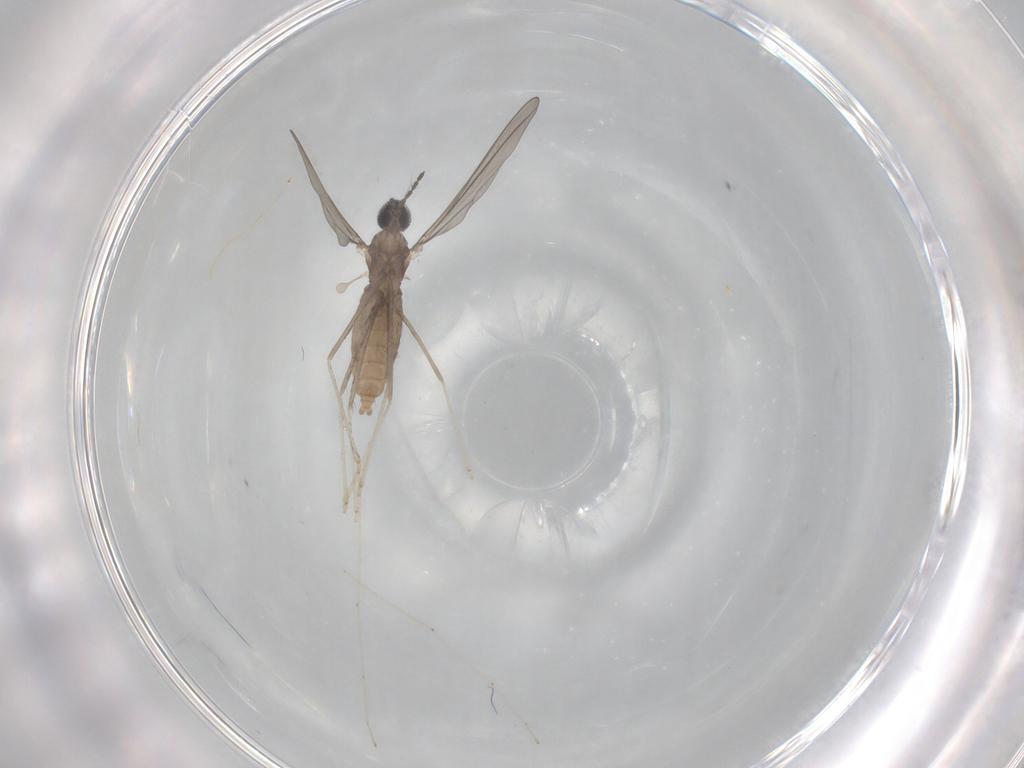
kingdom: Animalia
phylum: Arthropoda
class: Insecta
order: Diptera
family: Cecidomyiidae
